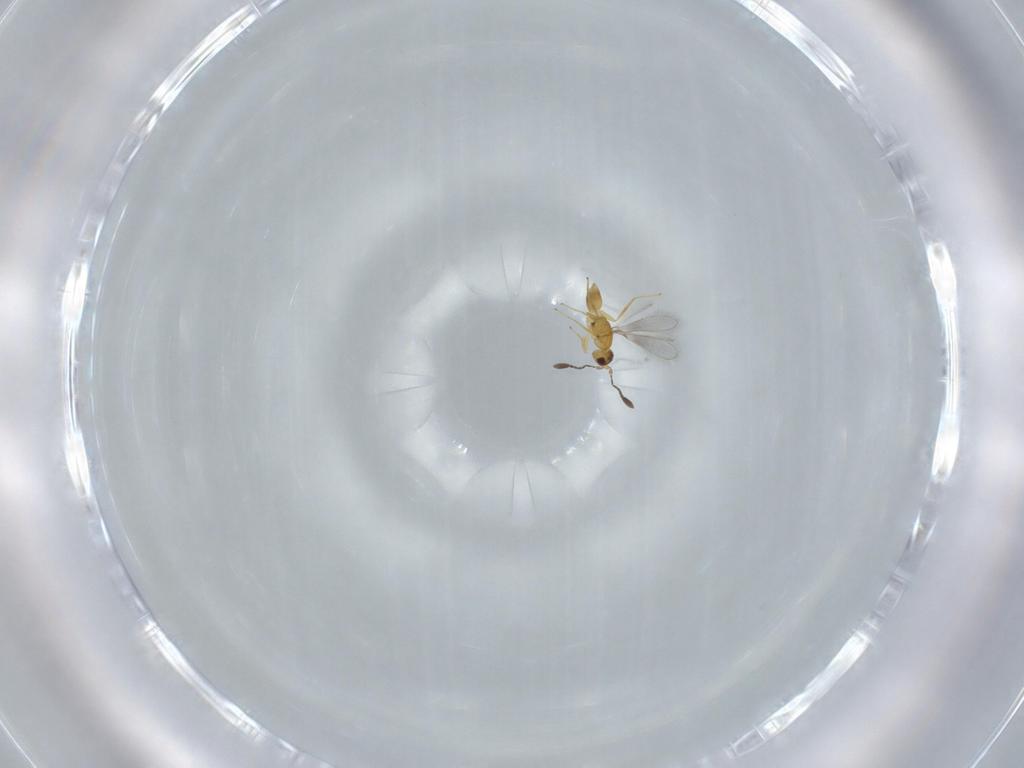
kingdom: Animalia
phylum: Arthropoda
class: Insecta
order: Hymenoptera
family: Mymaridae
